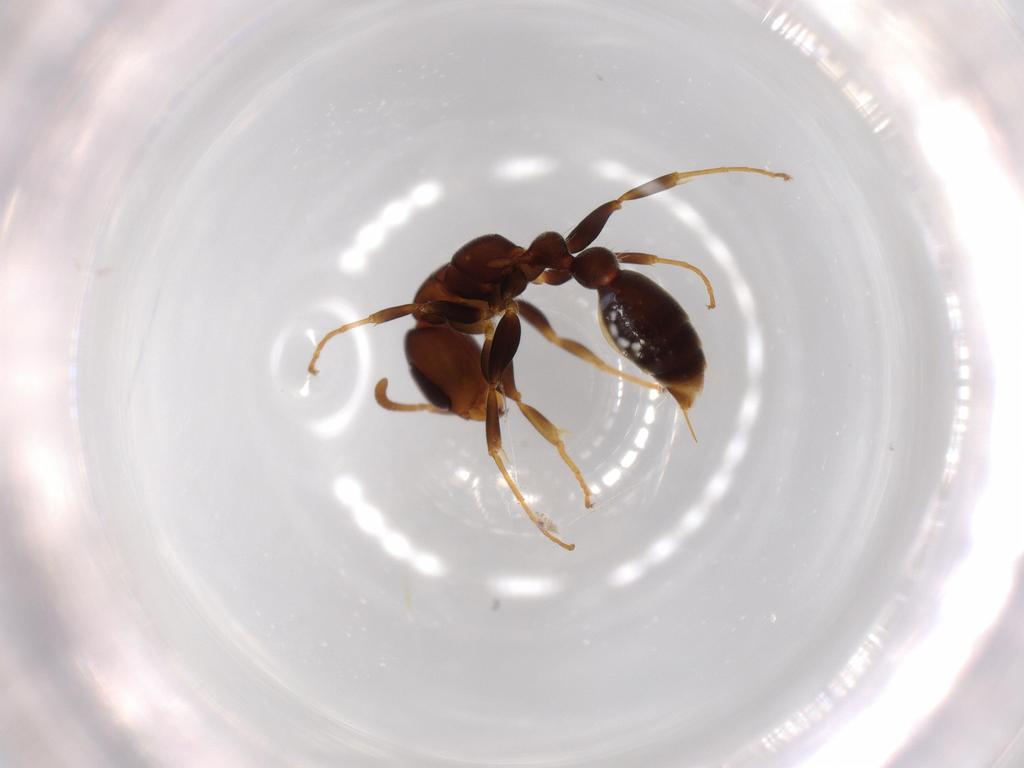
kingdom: Animalia
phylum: Arthropoda
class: Insecta
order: Hymenoptera
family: Formicidae
